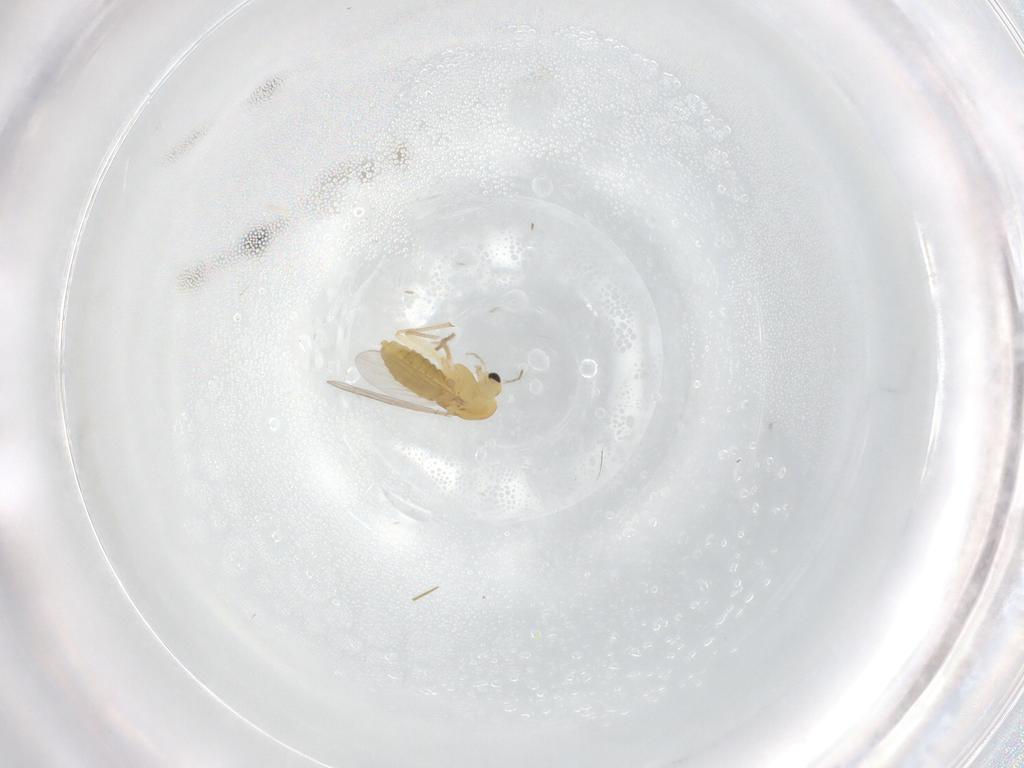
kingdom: Animalia
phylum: Arthropoda
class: Insecta
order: Diptera
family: Chironomidae
